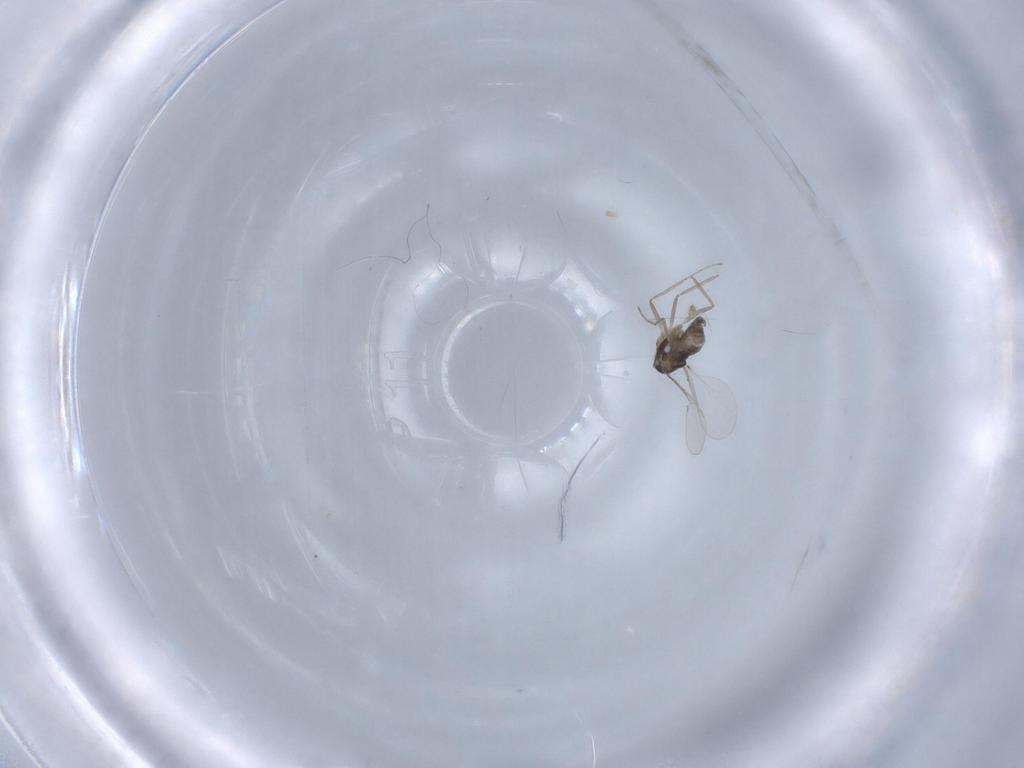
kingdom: Animalia
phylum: Arthropoda
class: Insecta
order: Diptera
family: Cecidomyiidae
